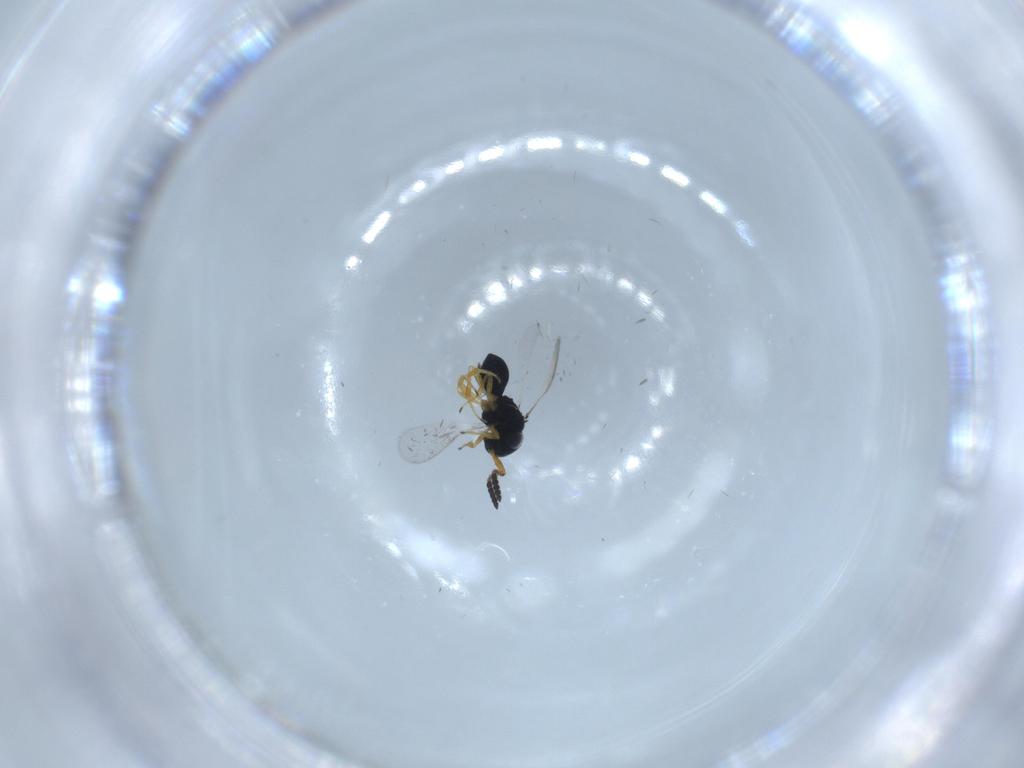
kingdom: Animalia
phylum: Arthropoda
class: Insecta
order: Hymenoptera
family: Scelionidae
